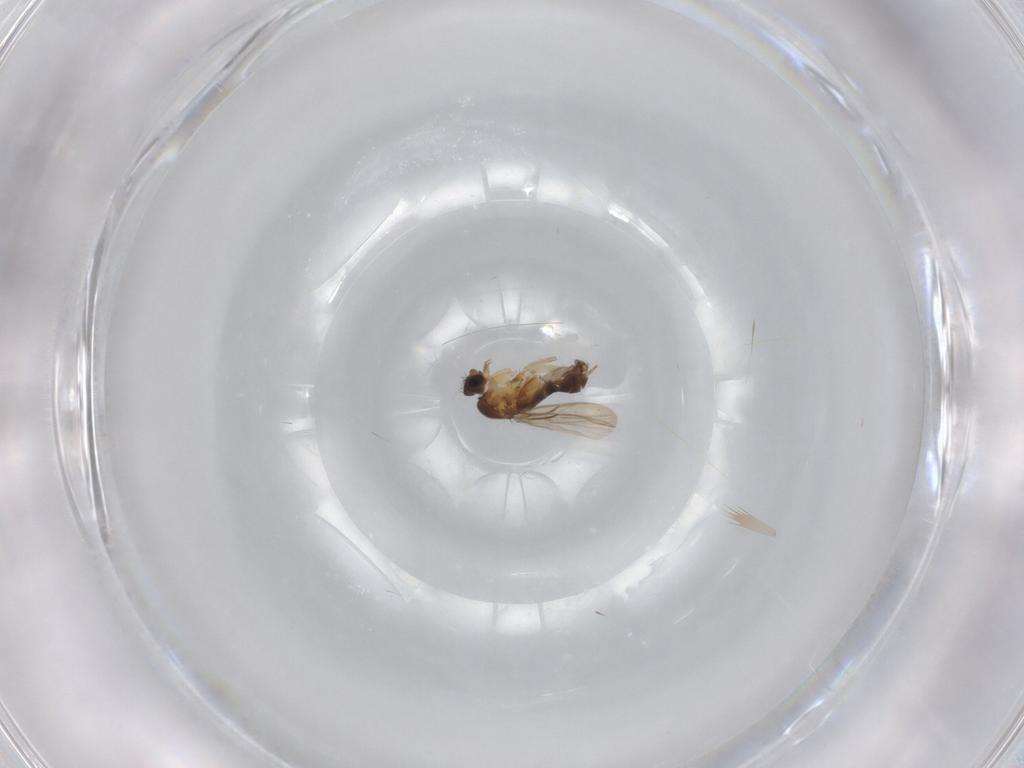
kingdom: Animalia
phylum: Arthropoda
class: Insecta
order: Diptera
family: Phoridae
